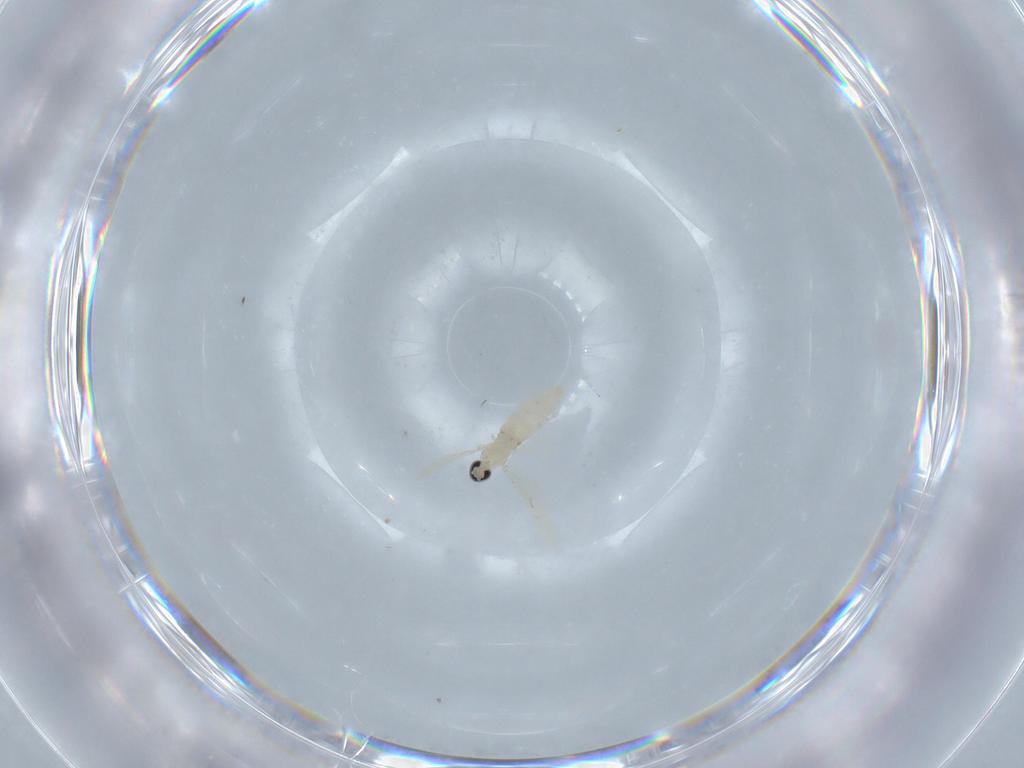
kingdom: Animalia
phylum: Arthropoda
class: Insecta
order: Diptera
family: Cecidomyiidae
